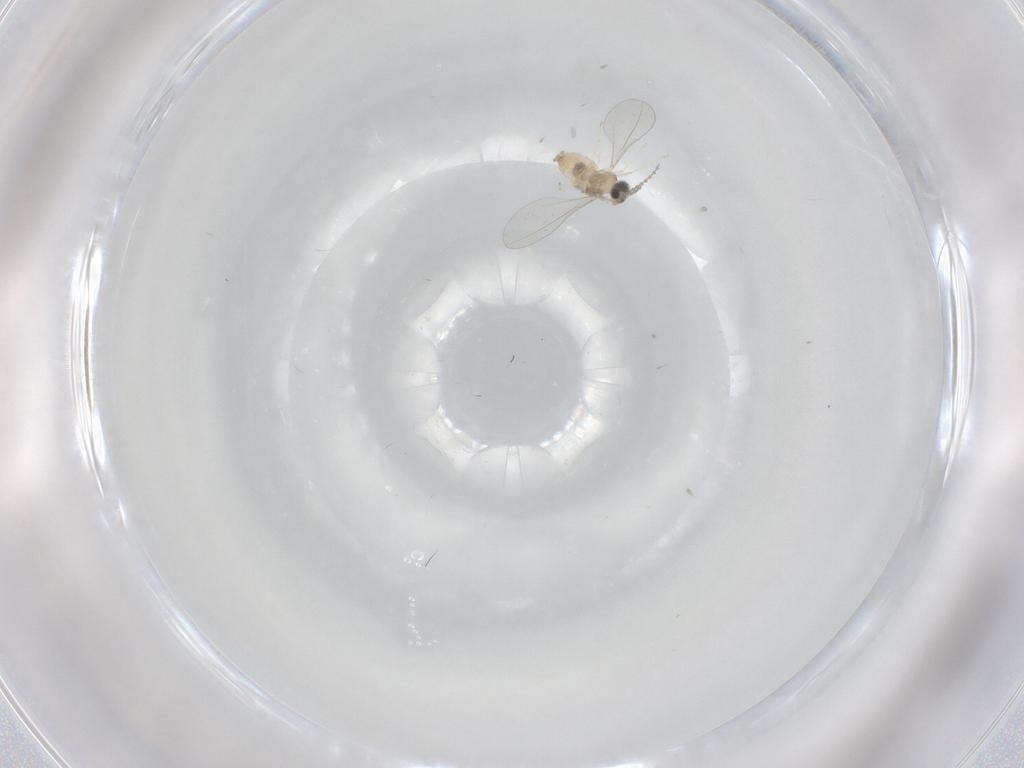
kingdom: Animalia
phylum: Arthropoda
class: Insecta
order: Diptera
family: Cecidomyiidae
